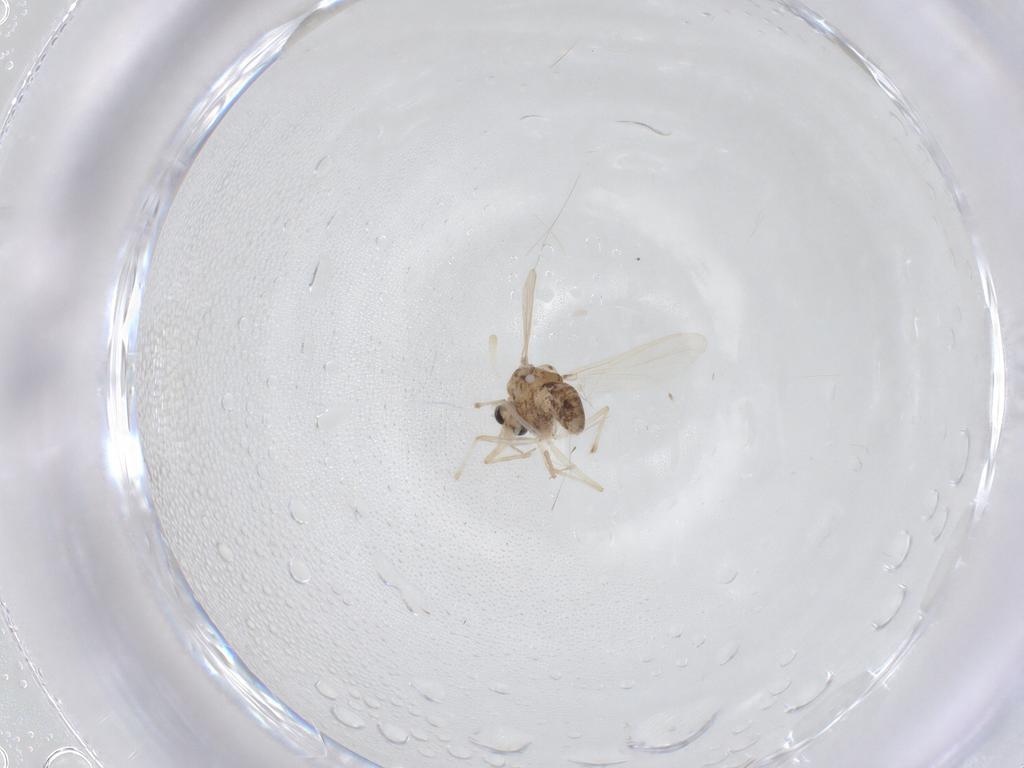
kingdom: Animalia
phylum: Arthropoda
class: Insecta
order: Diptera
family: Chironomidae
